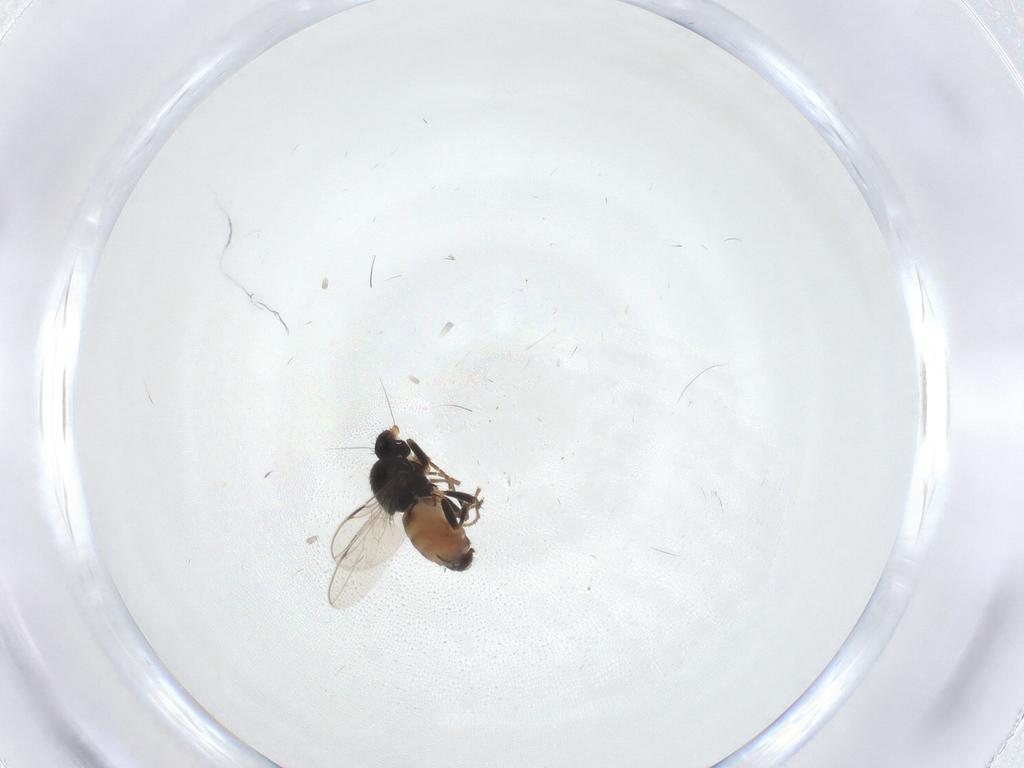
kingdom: Animalia
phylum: Arthropoda
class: Insecta
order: Diptera
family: Sphaeroceridae
